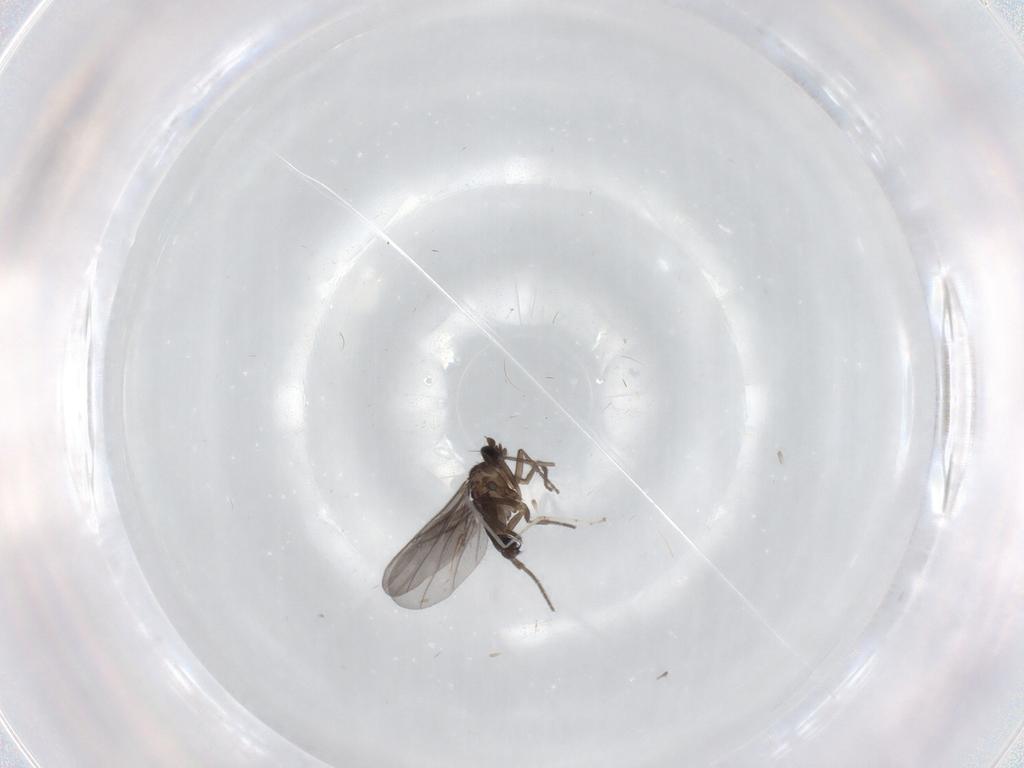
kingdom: Animalia
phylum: Arthropoda
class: Insecta
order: Diptera
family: Phoridae
